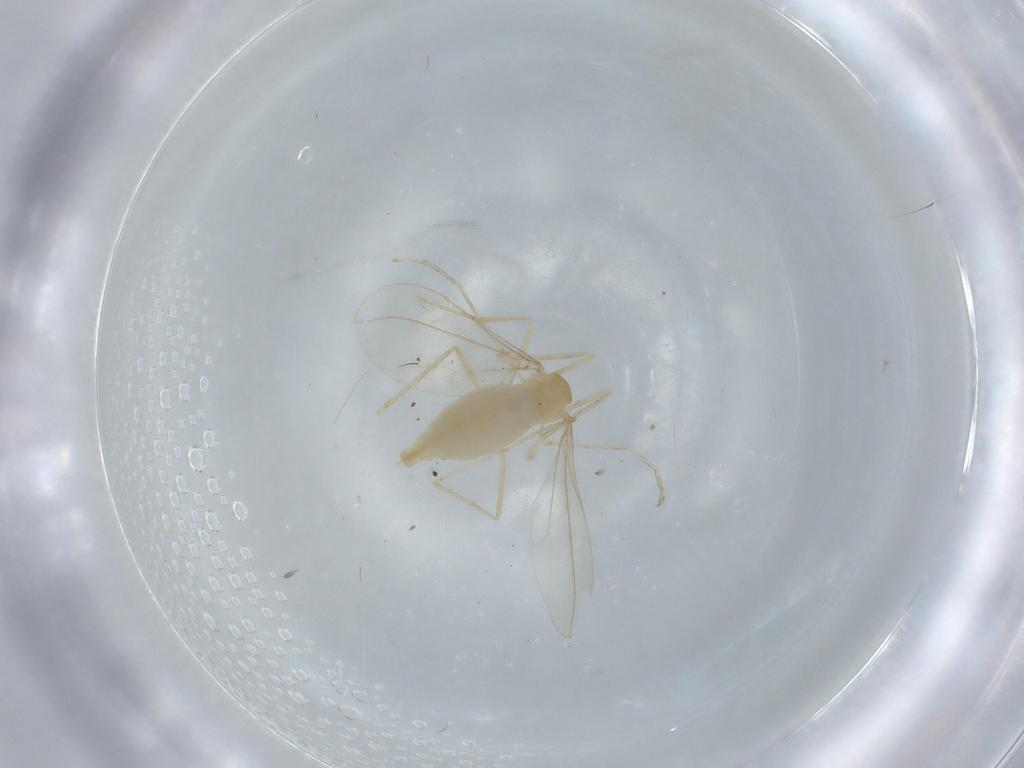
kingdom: Animalia
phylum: Arthropoda
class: Insecta
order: Diptera
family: Cecidomyiidae
